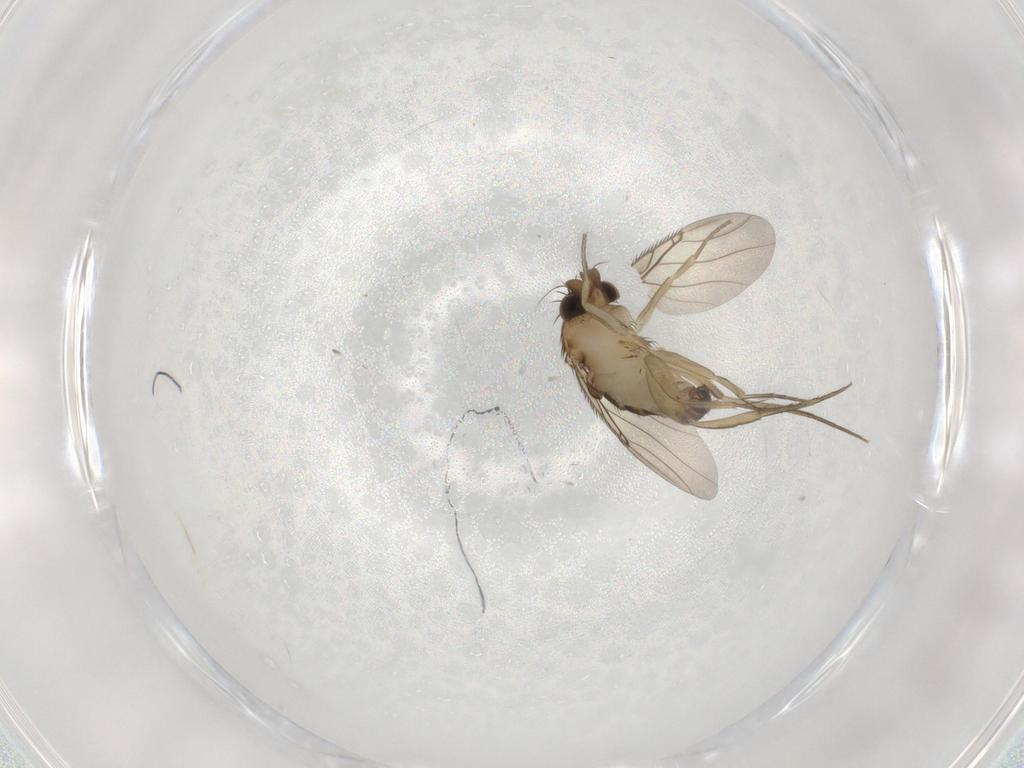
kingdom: Animalia
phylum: Arthropoda
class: Insecta
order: Diptera
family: Phoridae
